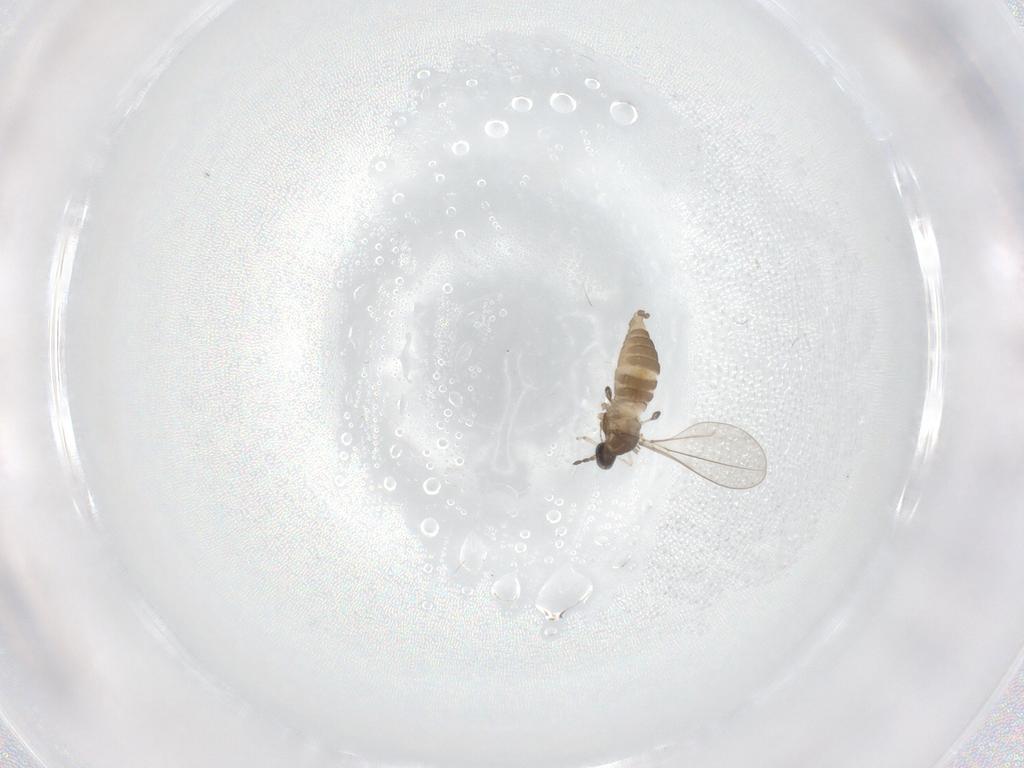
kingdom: Animalia
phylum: Arthropoda
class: Insecta
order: Diptera
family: Cecidomyiidae
